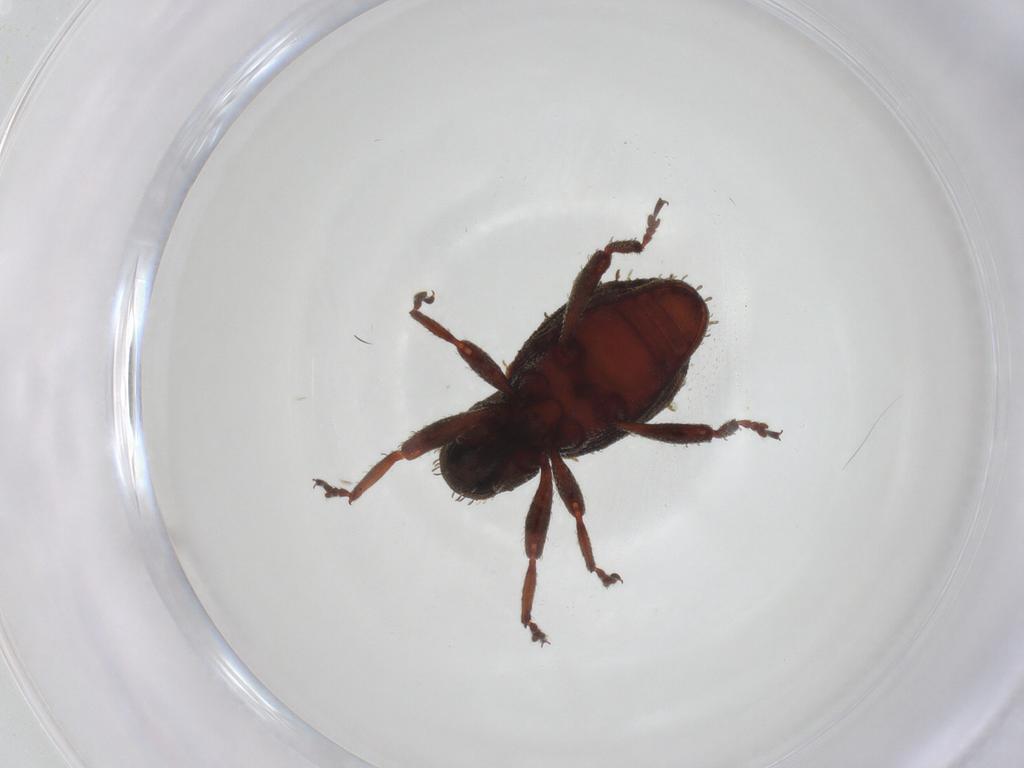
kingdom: Animalia
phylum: Arthropoda
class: Insecta
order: Coleoptera
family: Curculionidae
